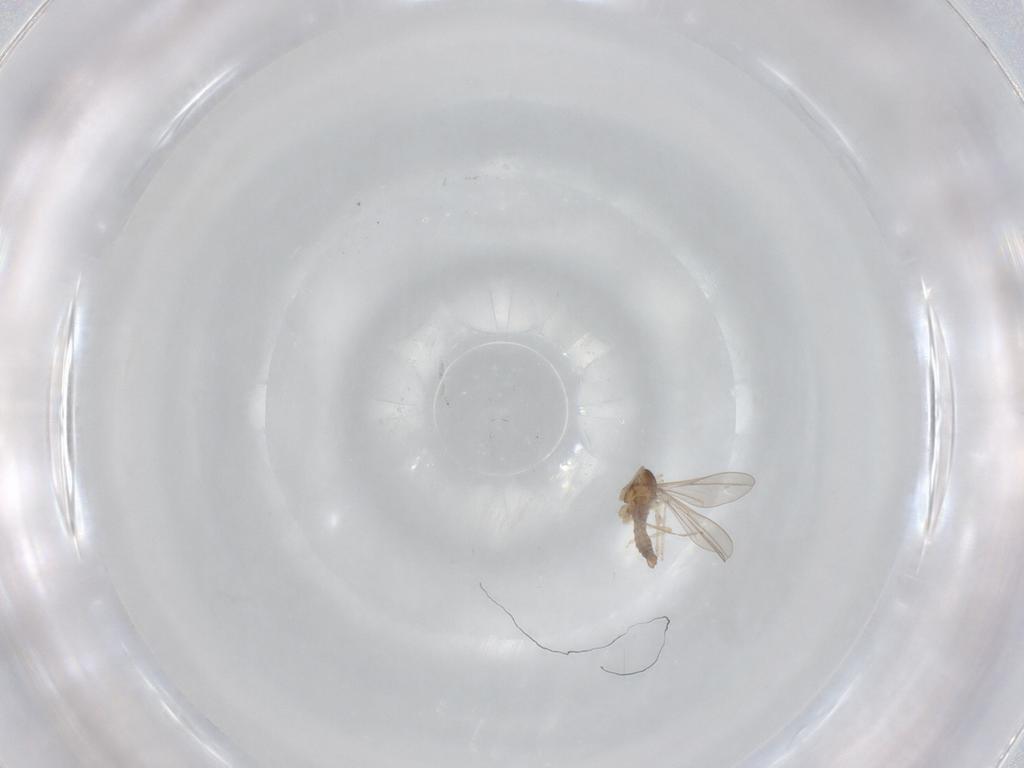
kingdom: Animalia
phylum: Arthropoda
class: Insecta
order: Diptera
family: Cecidomyiidae
